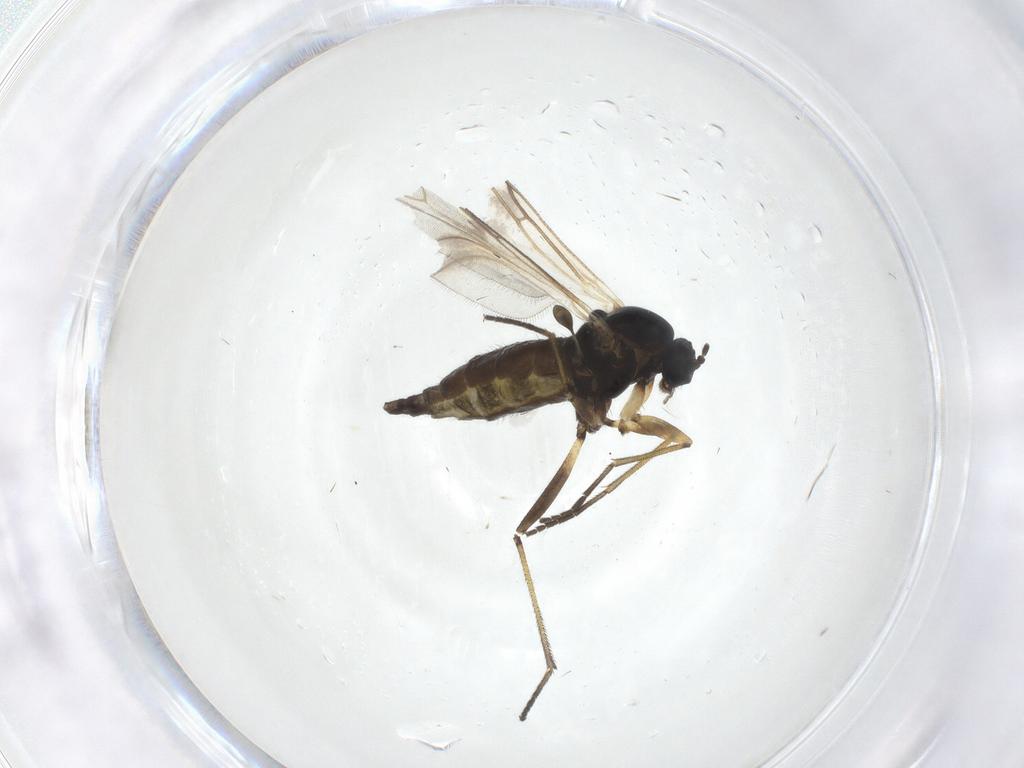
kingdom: Animalia
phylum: Arthropoda
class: Insecta
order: Diptera
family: Sciaridae
